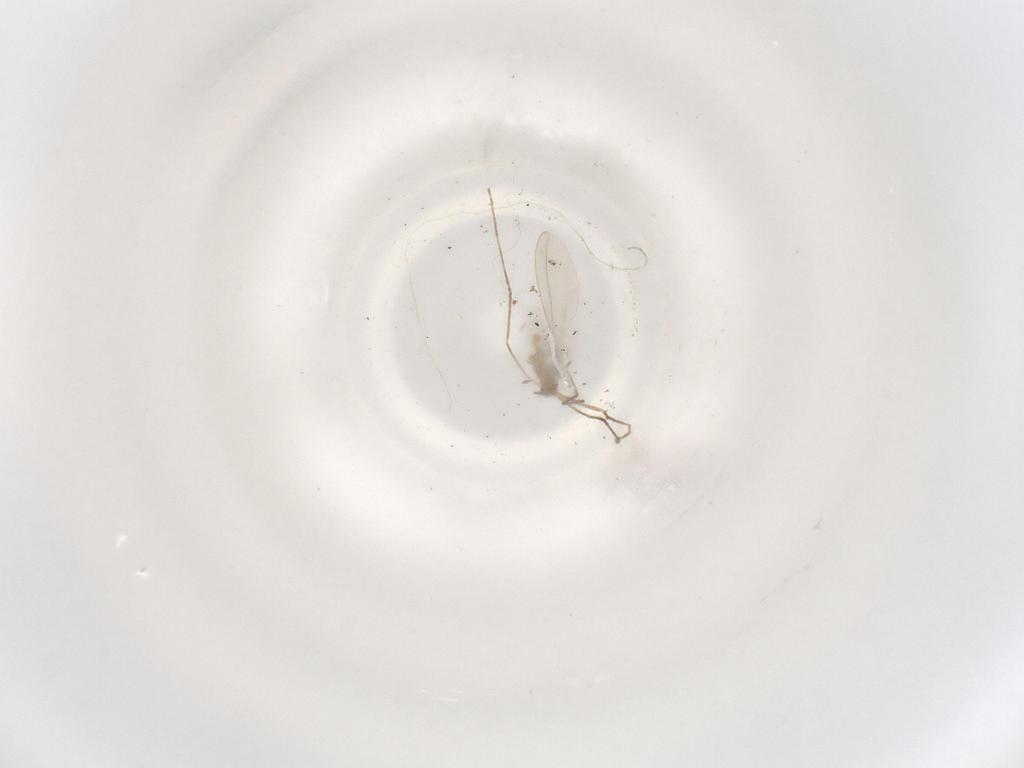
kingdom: Animalia
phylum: Arthropoda
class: Insecta
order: Diptera
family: Cecidomyiidae
